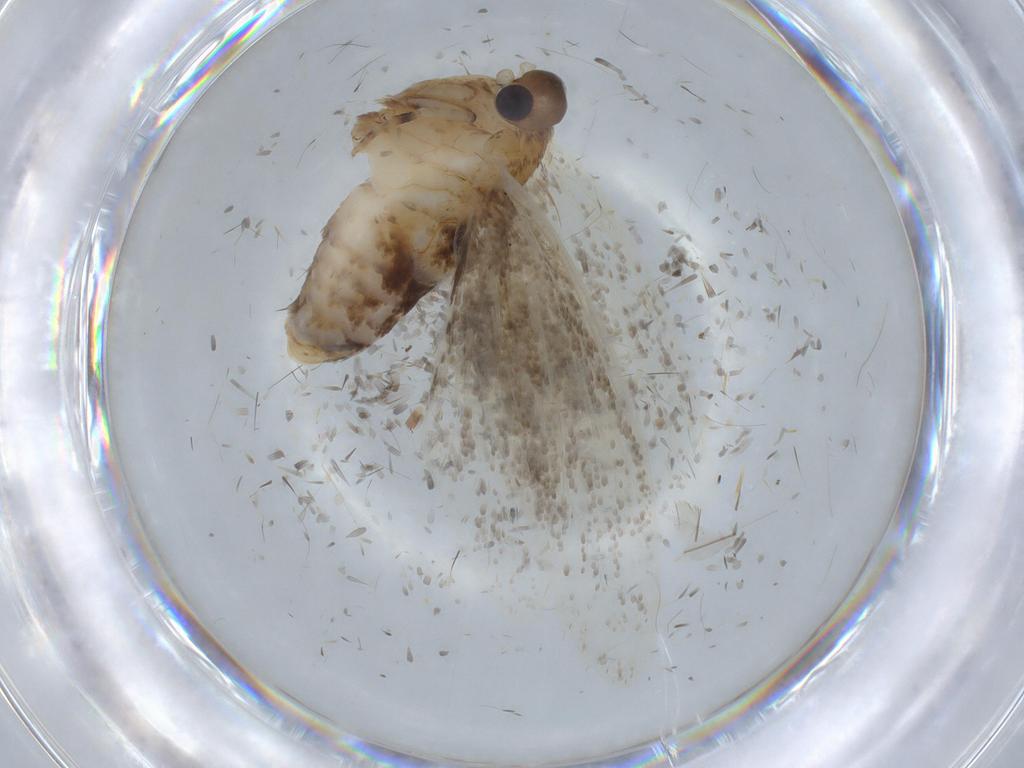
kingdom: Animalia
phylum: Arthropoda
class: Insecta
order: Lepidoptera
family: Tineidae
